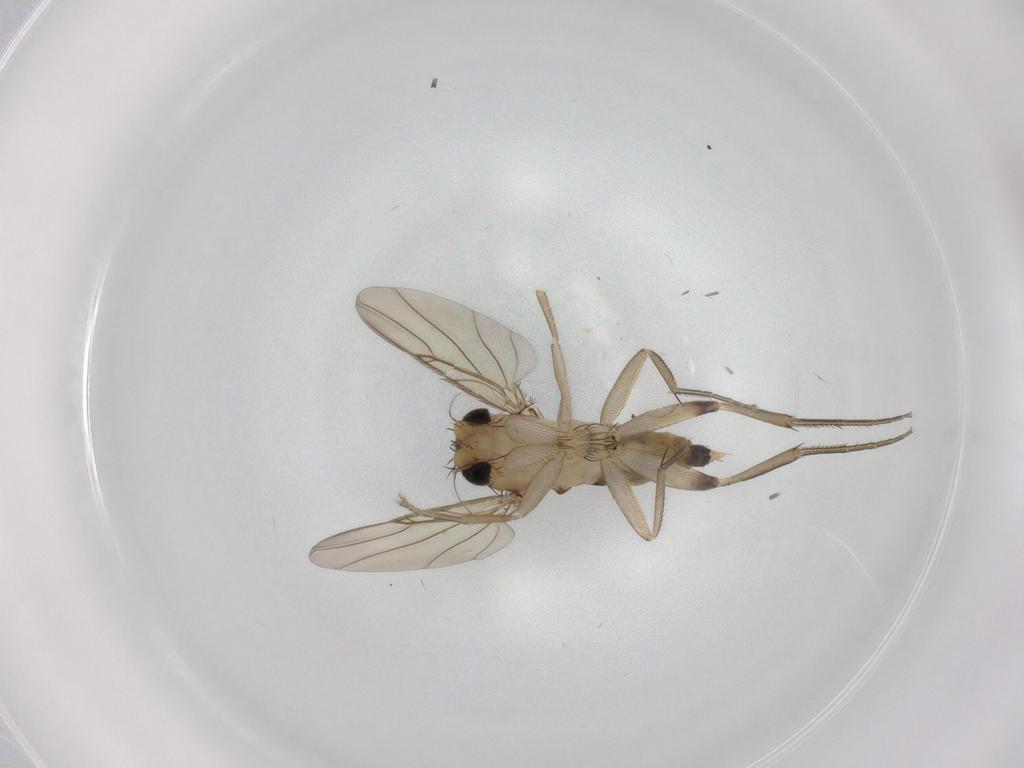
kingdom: Animalia
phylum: Arthropoda
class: Insecta
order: Diptera
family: Phoridae
